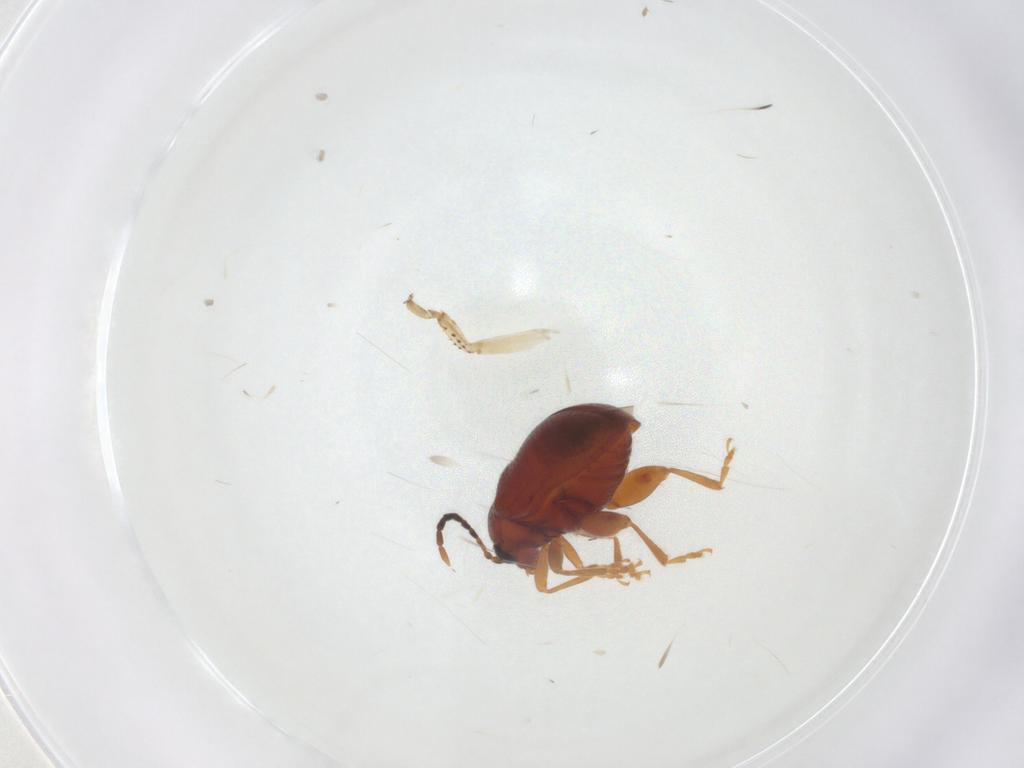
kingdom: Animalia
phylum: Arthropoda
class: Insecta
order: Coleoptera
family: Chrysomelidae
